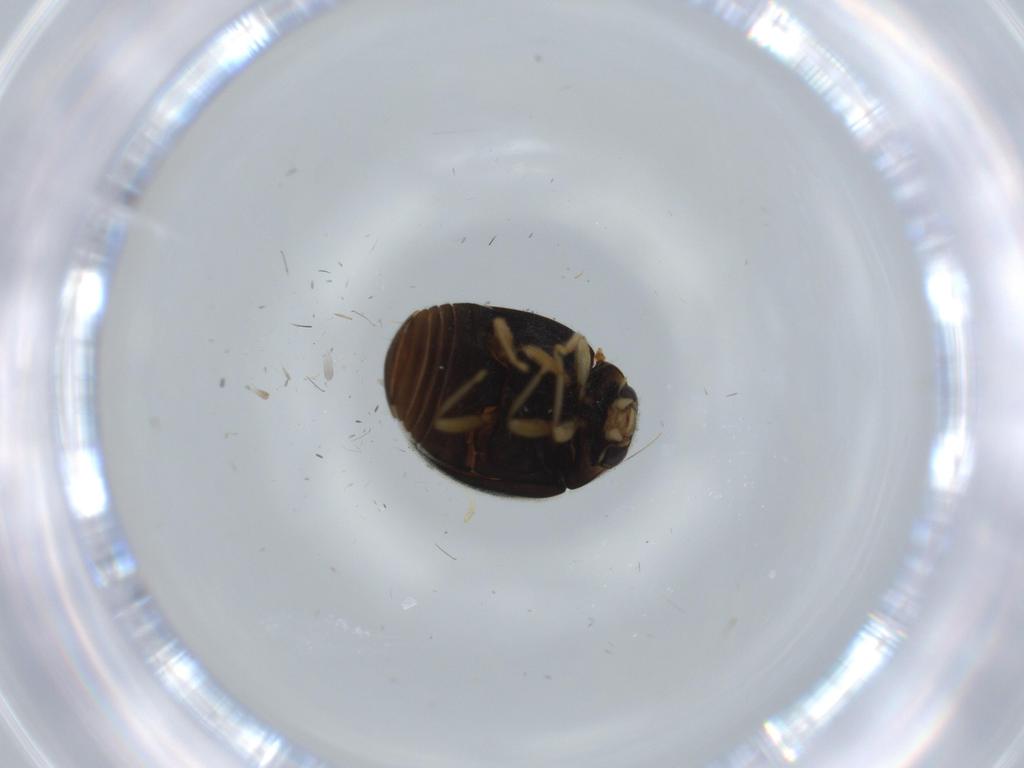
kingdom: Animalia
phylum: Arthropoda
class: Insecta
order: Coleoptera
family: Coccinellidae
